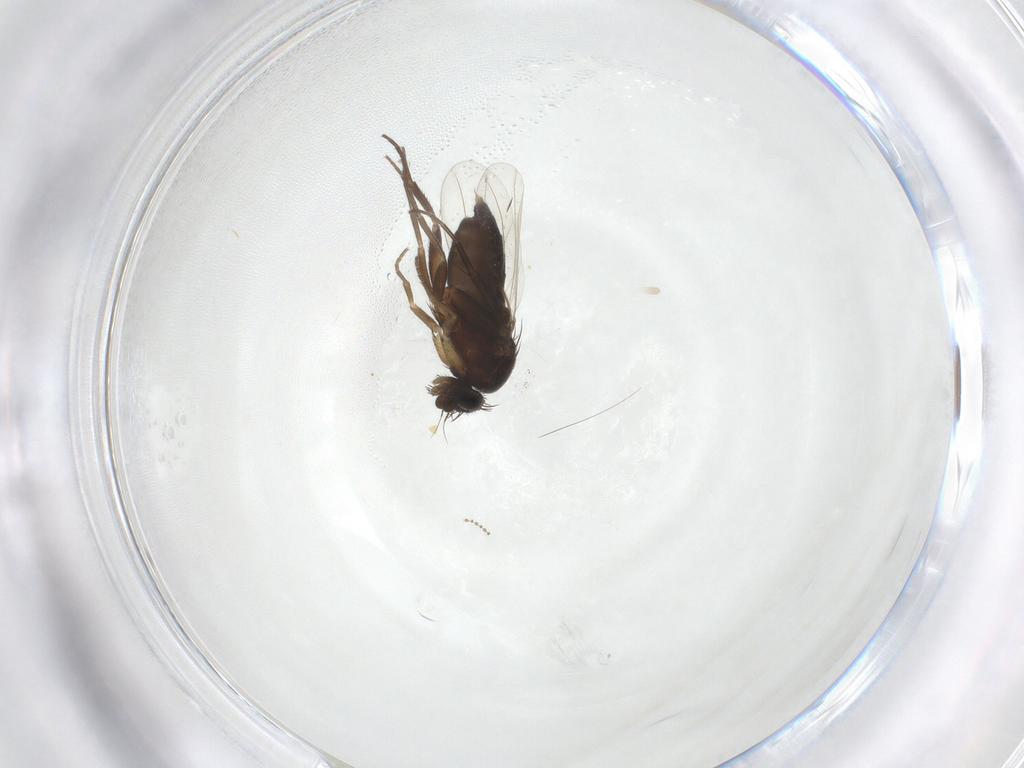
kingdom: Animalia
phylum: Arthropoda
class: Insecta
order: Diptera
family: Phoridae
